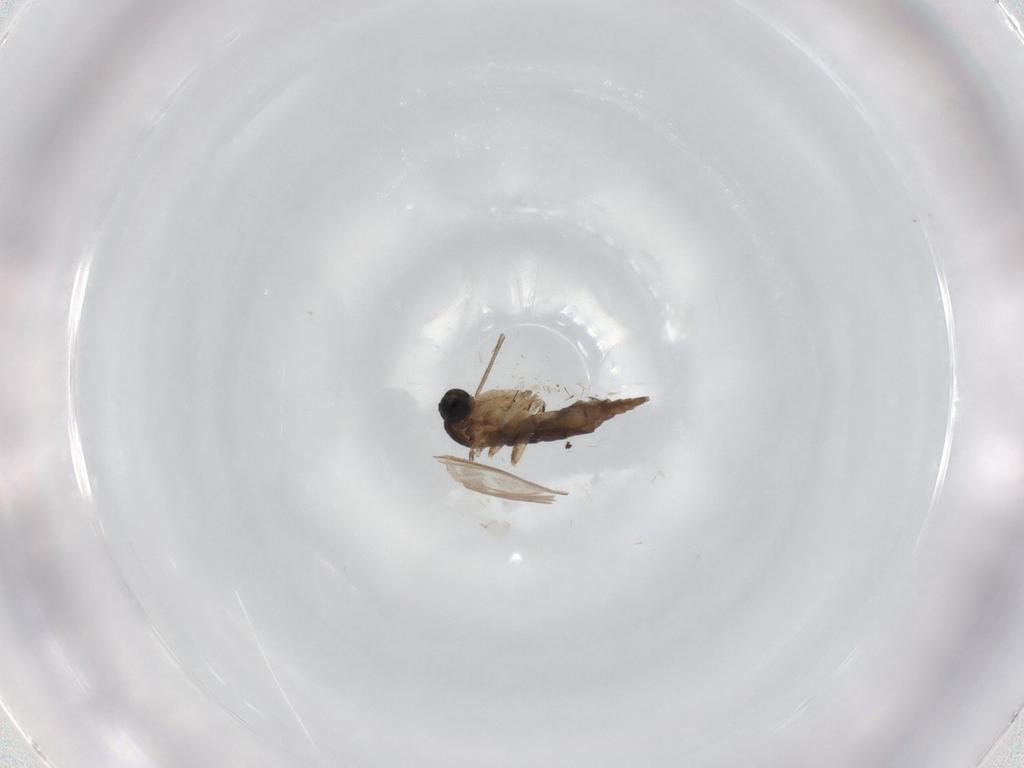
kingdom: Animalia
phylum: Arthropoda
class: Insecta
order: Diptera
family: Sciaridae
